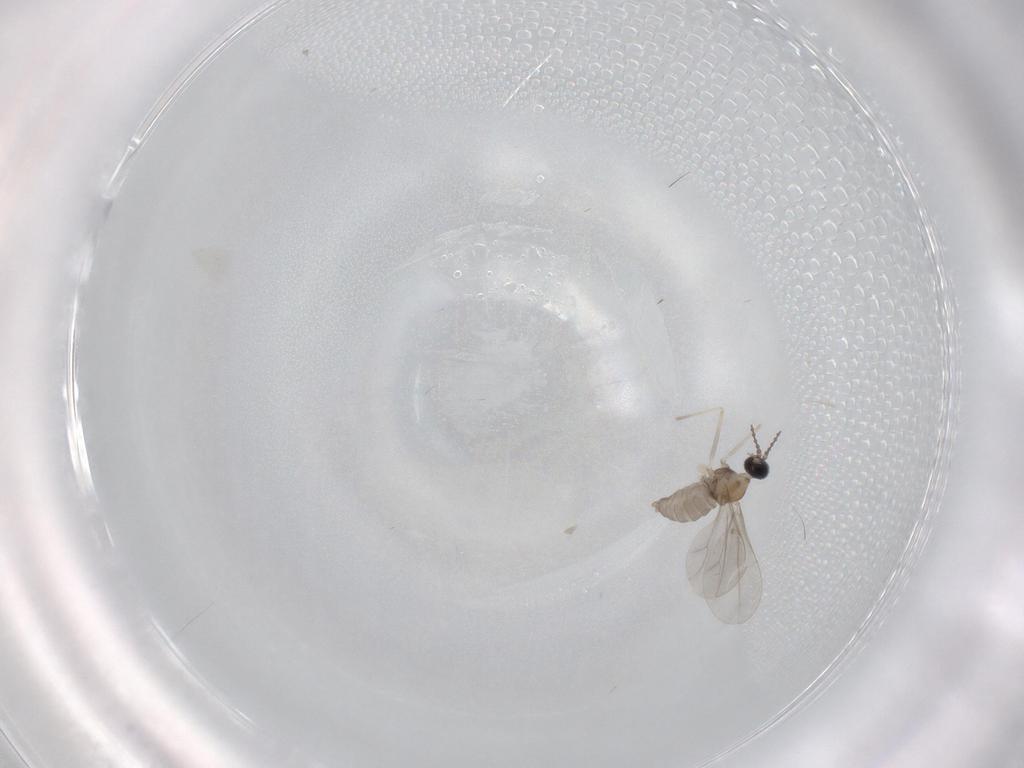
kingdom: Animalia
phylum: Arthropoda
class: Insecta
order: Diptera
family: Cecidomyiidae
